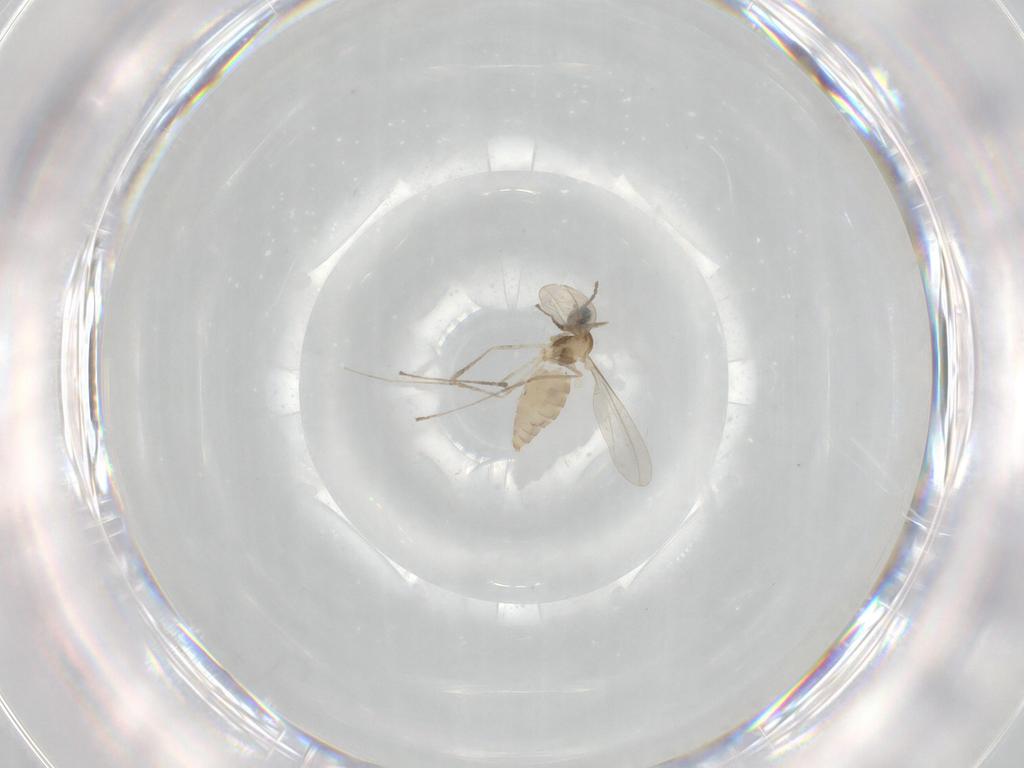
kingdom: Animalia
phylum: Arthropoda
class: Insecta
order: Diptera
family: Cecidomyiidae
